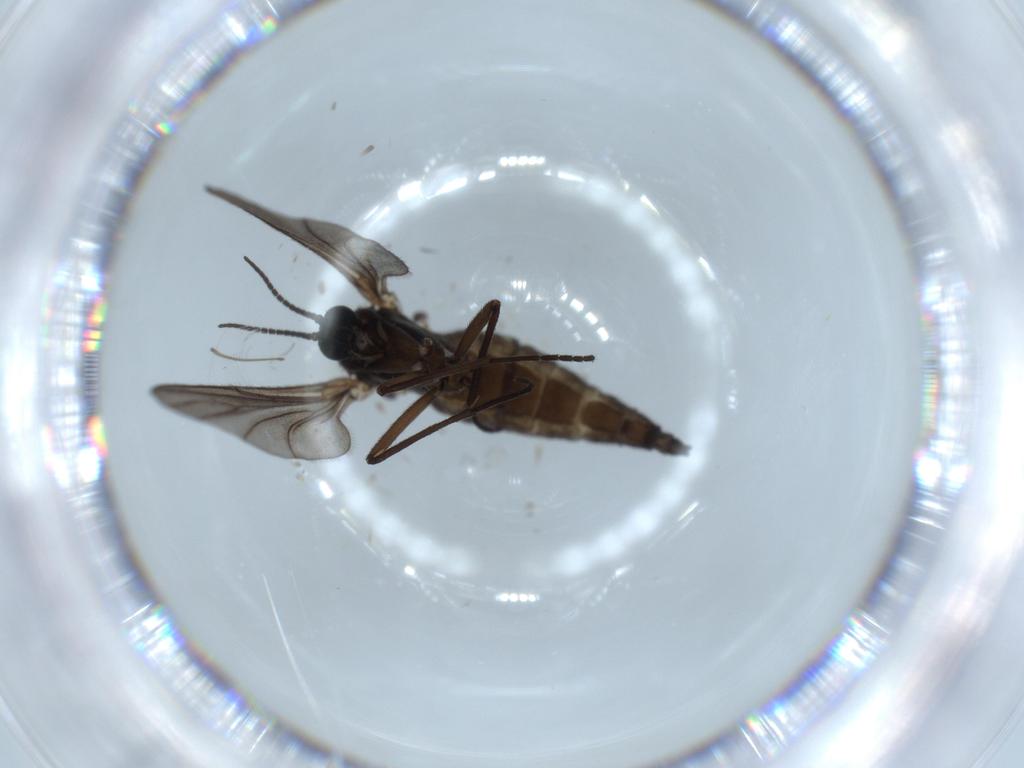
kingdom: Animalia
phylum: Arthropoda
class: Insecta
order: Diptera
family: Sciaridae
